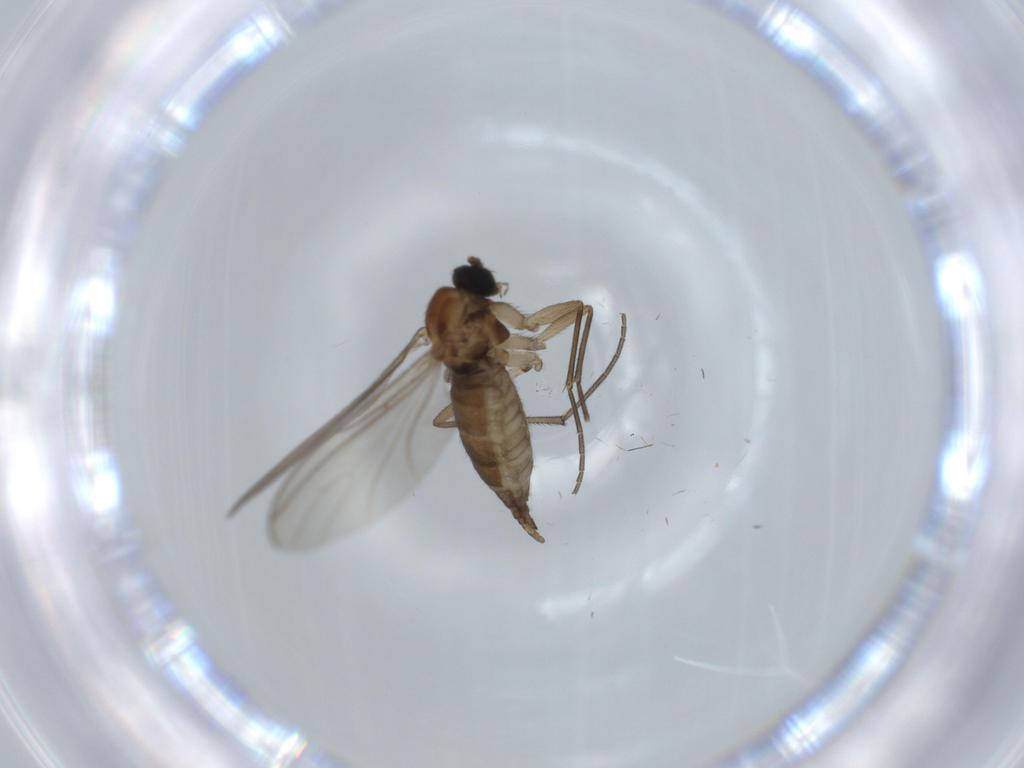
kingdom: Animalia
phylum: Arthropoda
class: Insecta
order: Diptera
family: Sciaridae
